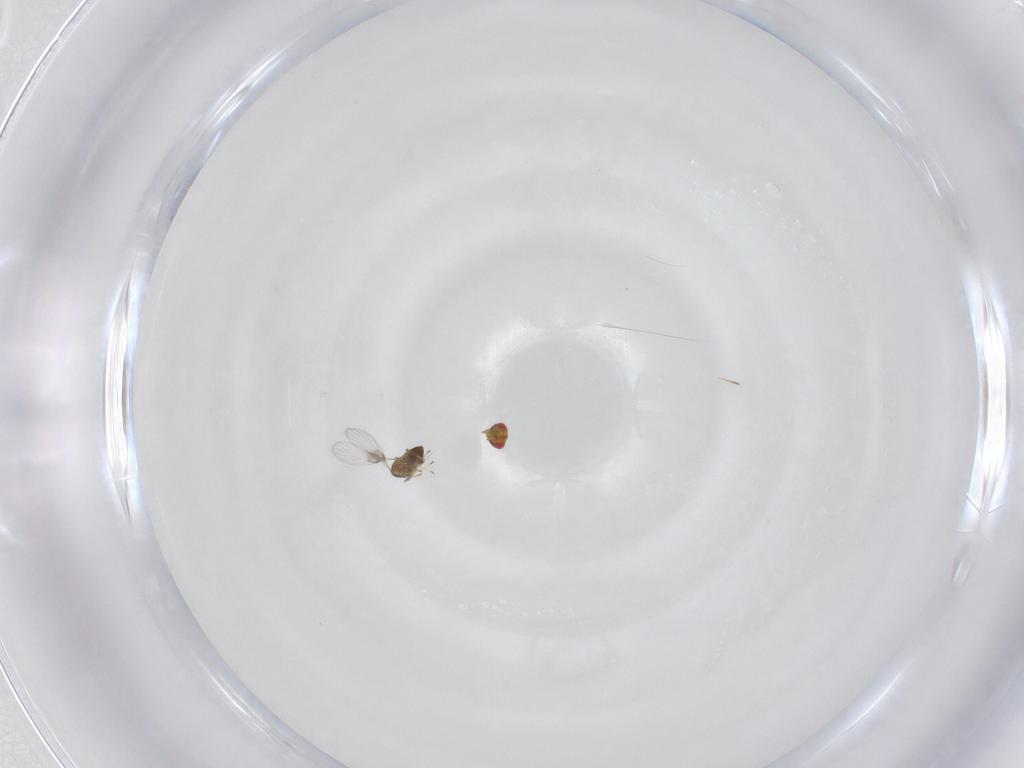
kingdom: Animalia
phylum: Arthropoda
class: Insecta
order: Hymenoptera
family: Trichogrammatidae
